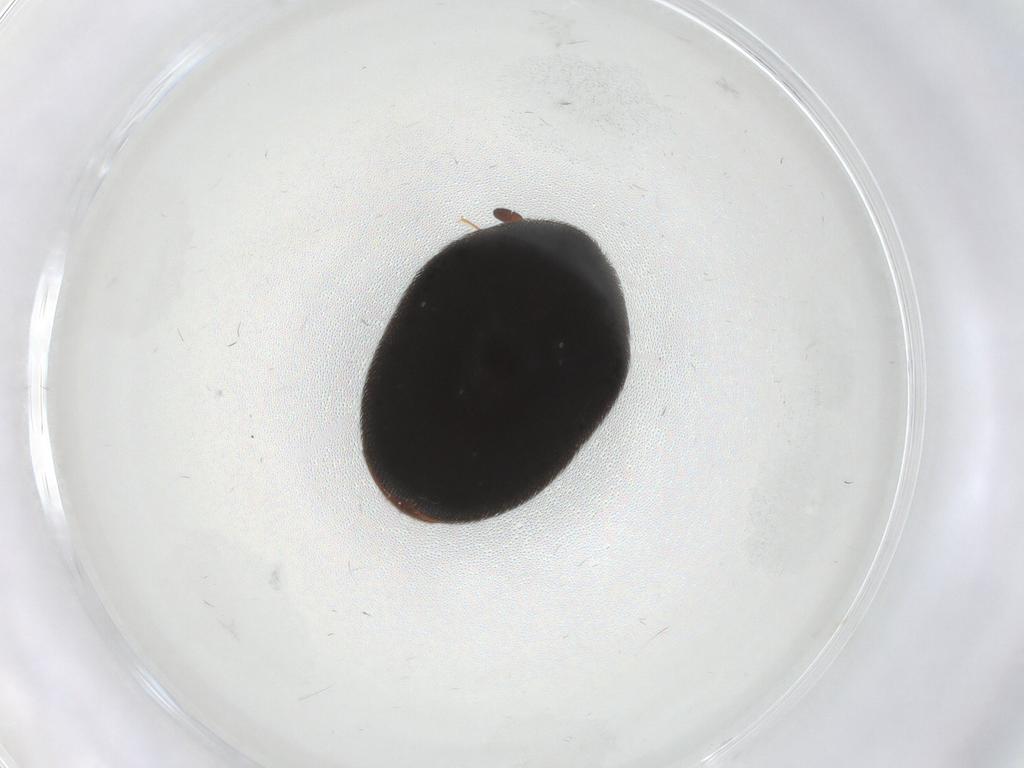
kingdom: Animalia
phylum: Arthropoda
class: Insecta
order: Coleoptera
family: Dermestidae
